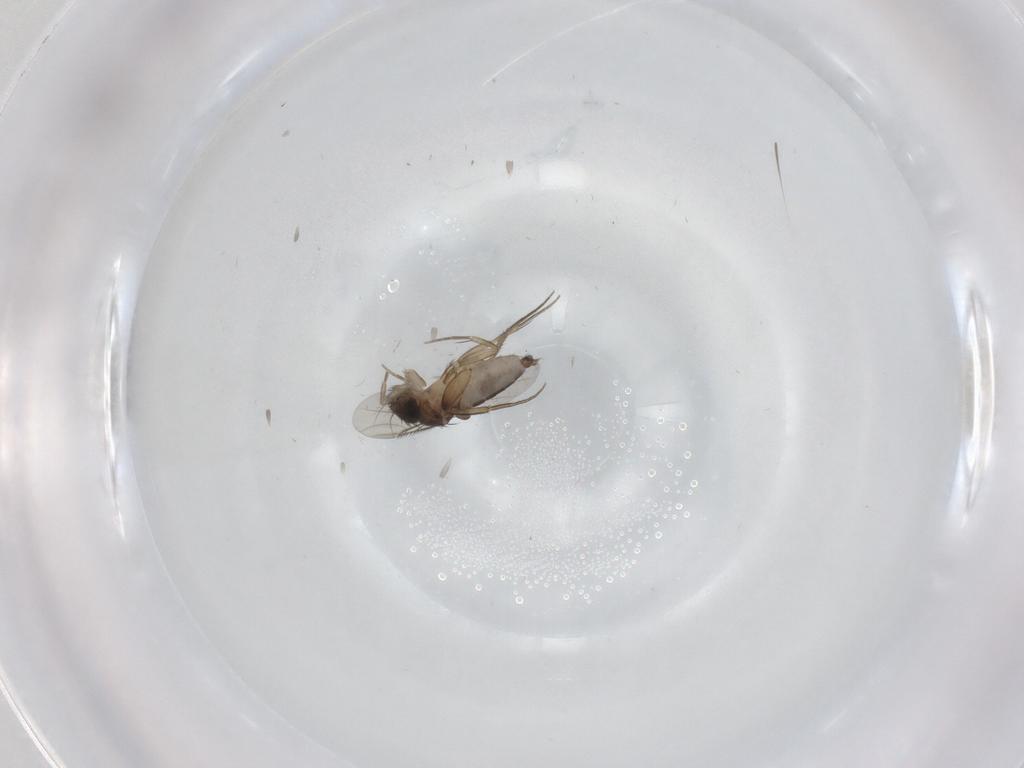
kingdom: Animalia
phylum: Arthropoda
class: Insecta
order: Diptera
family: Phoridae
